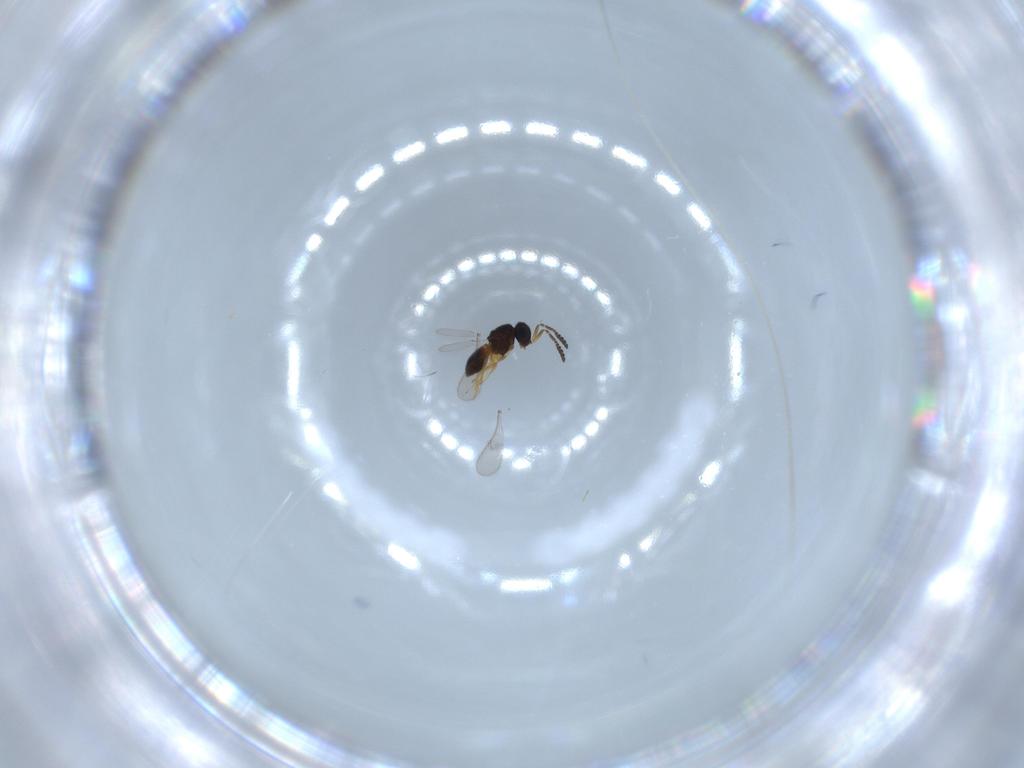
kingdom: Animalia
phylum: Arthropoda
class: Insecta
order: Hymenoptera
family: Scelionidae
